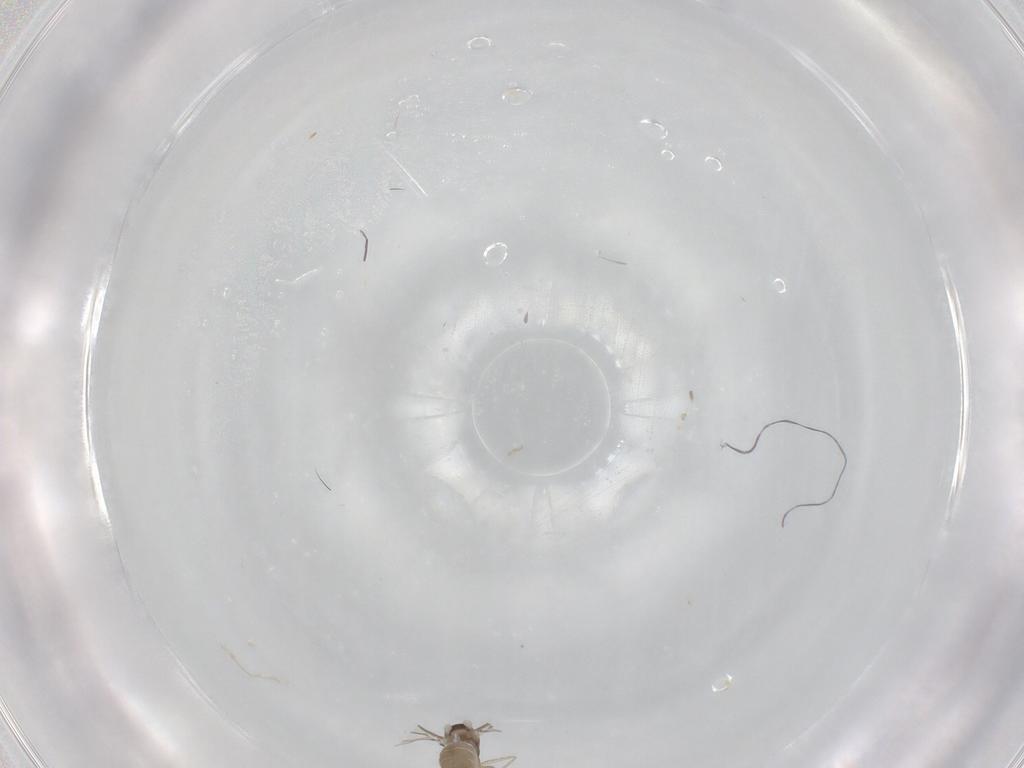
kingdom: Animalia
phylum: Arthropoda
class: Insecta
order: Diptera
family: Cecidomyiidae
